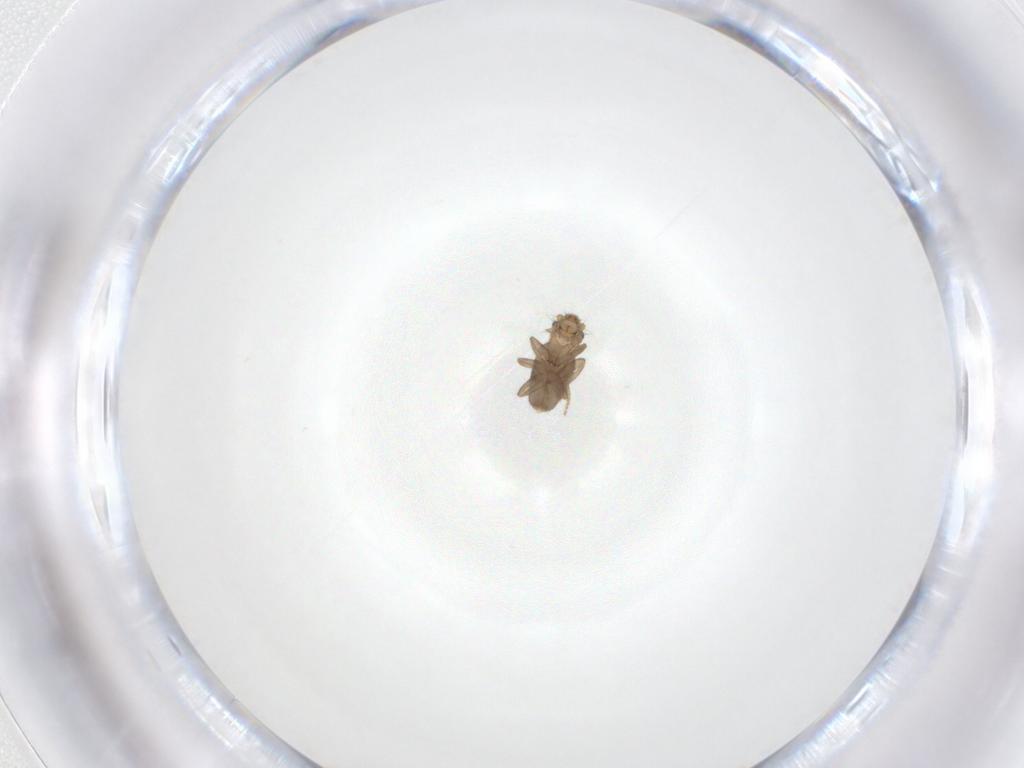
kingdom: Animalia
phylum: Arthropoda
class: Insecta
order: Diptera
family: Phoridae
